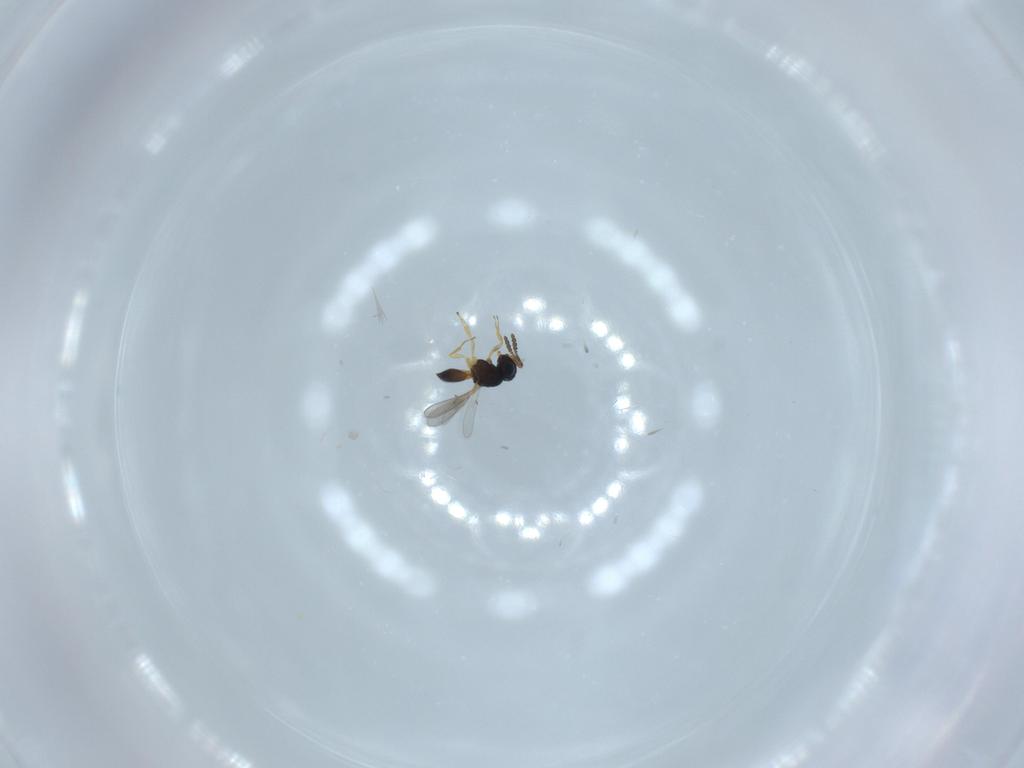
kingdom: Animalia
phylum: Arthropoda
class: Insecta
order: Hymenoptera
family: Scelionidae
